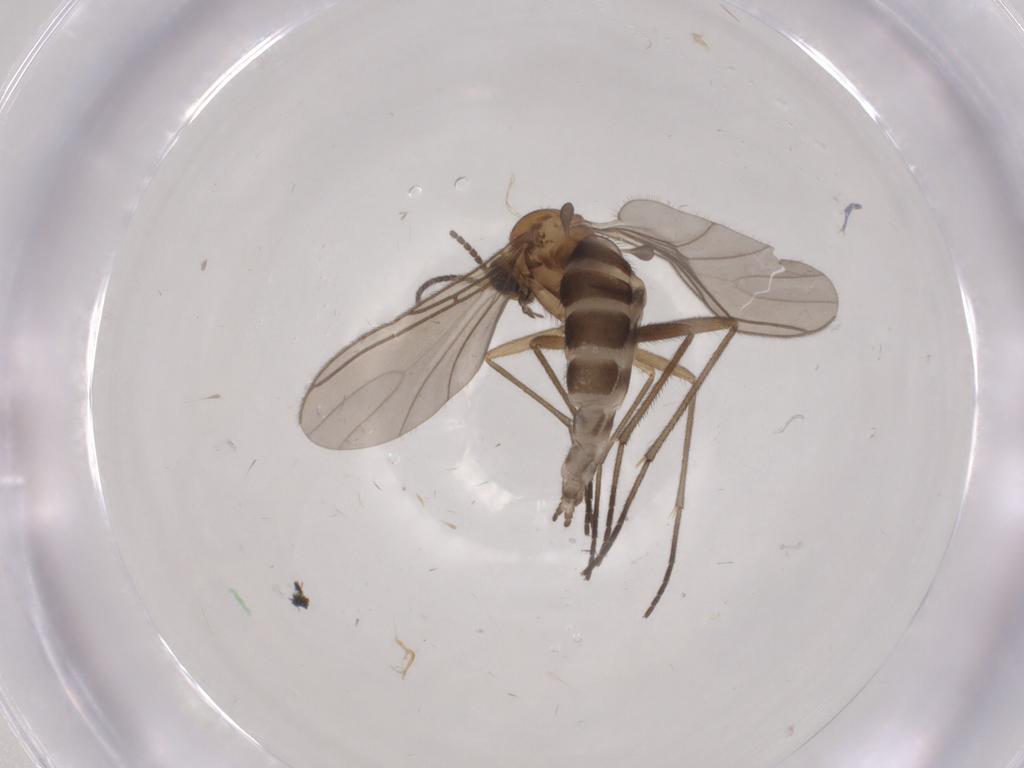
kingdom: Animalia
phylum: Arthropoda
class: Insecta
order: Diptera
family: Sciaridae
